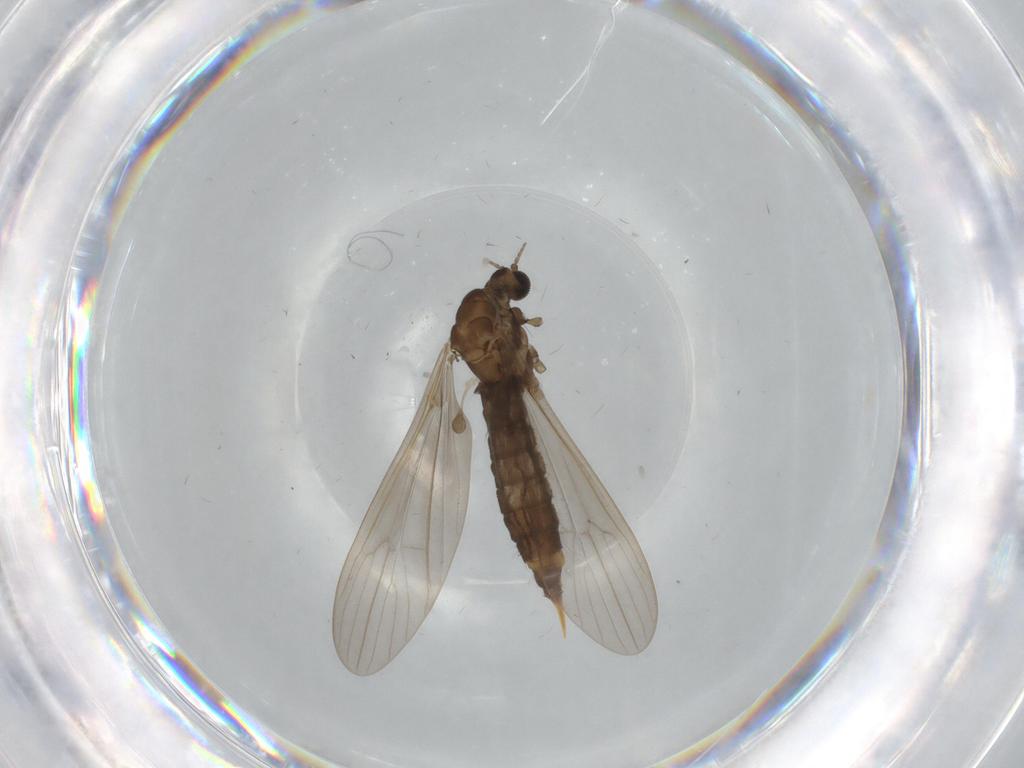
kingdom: Animalia
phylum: Arthropoda
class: Insecta
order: Diptera
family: Limoniidae
